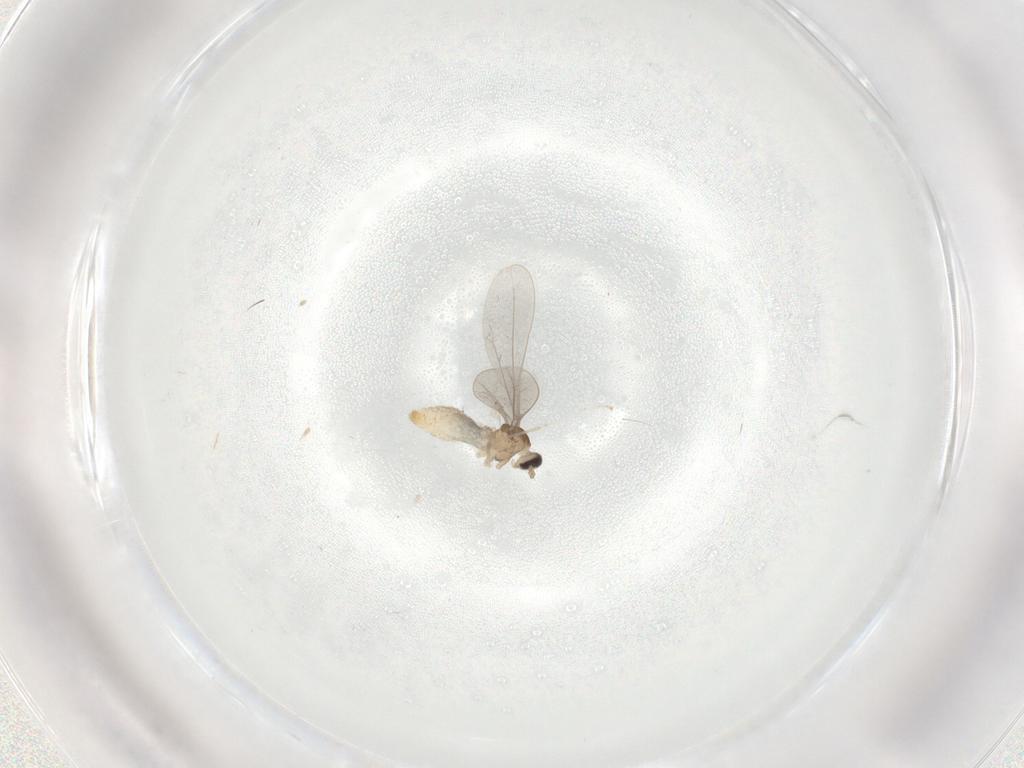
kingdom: Animalia
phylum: Arthropoda
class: Insecta
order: Diptera
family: Cecidomyiidae
